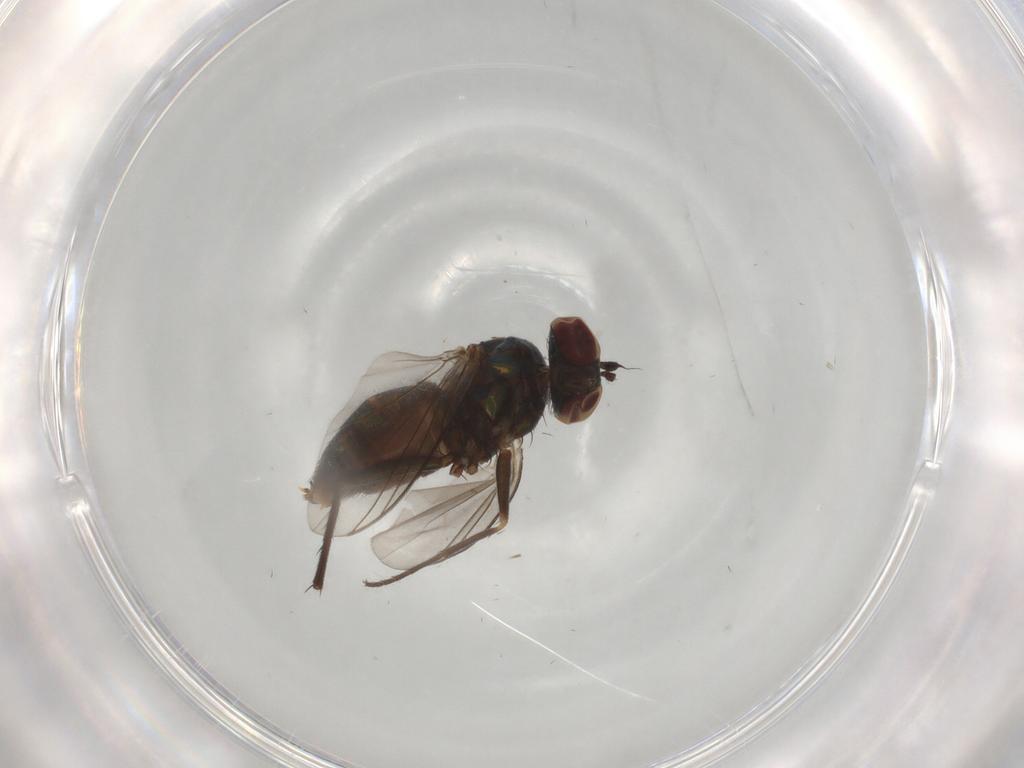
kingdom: Animalia
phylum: Arthropoda
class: Insecta
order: Diptera
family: Dolichopodidae
